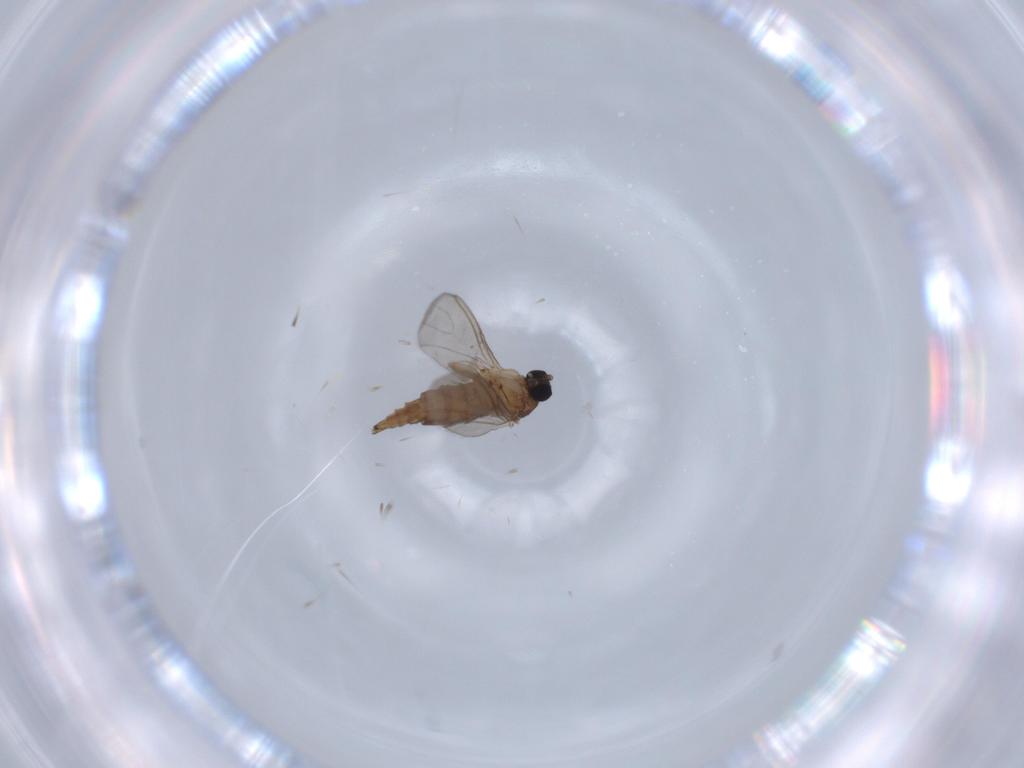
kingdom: Animalia
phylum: Arthropoda
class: Insecta
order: Diptera
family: Sciaridae
